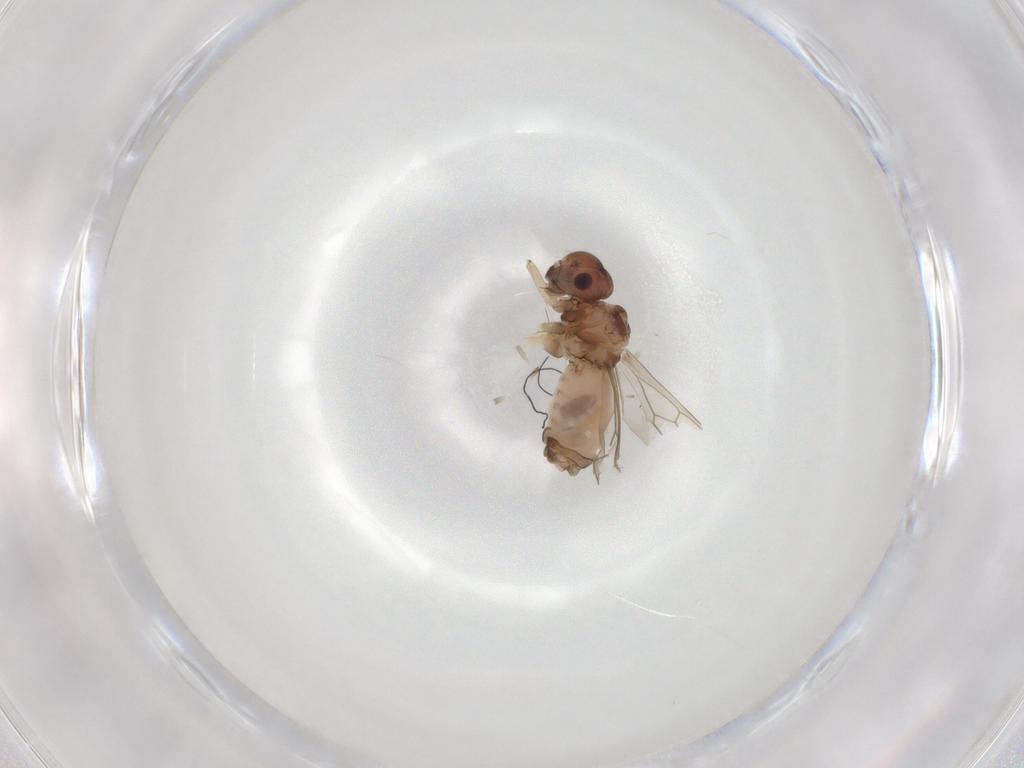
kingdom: Animalia
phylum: Arthropoda
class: Insecta
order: Psocodea
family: Peripsocidae
